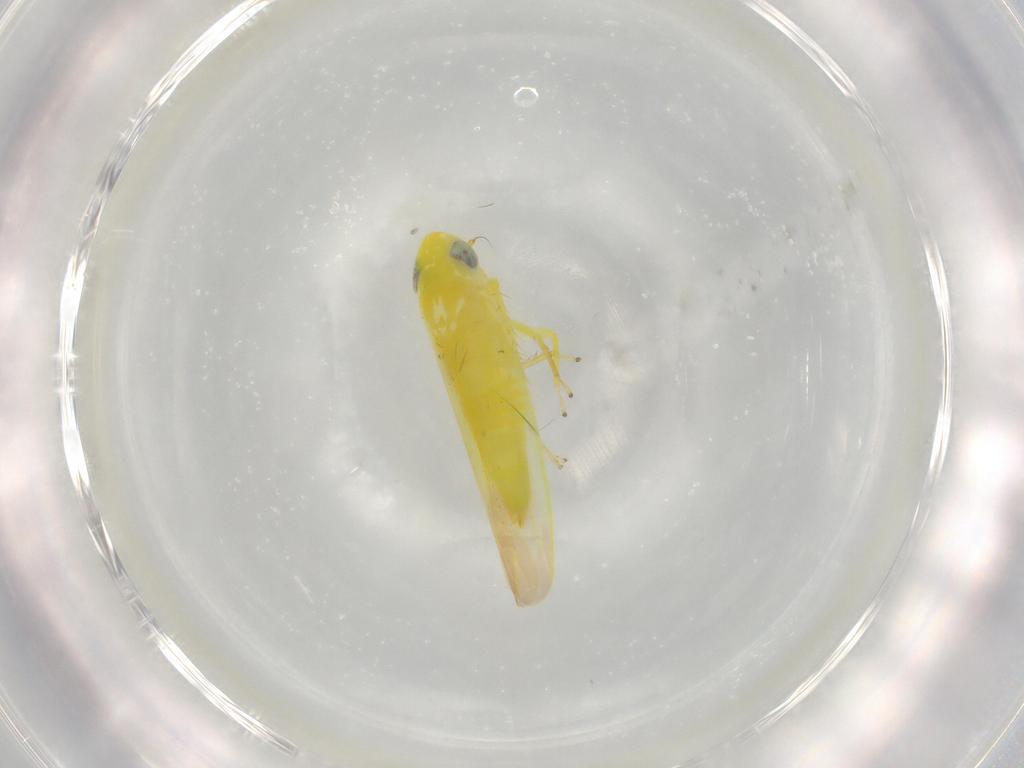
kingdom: Animalia
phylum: Arthropoda
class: Insecta
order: Hemiptera
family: Cicadellidae
